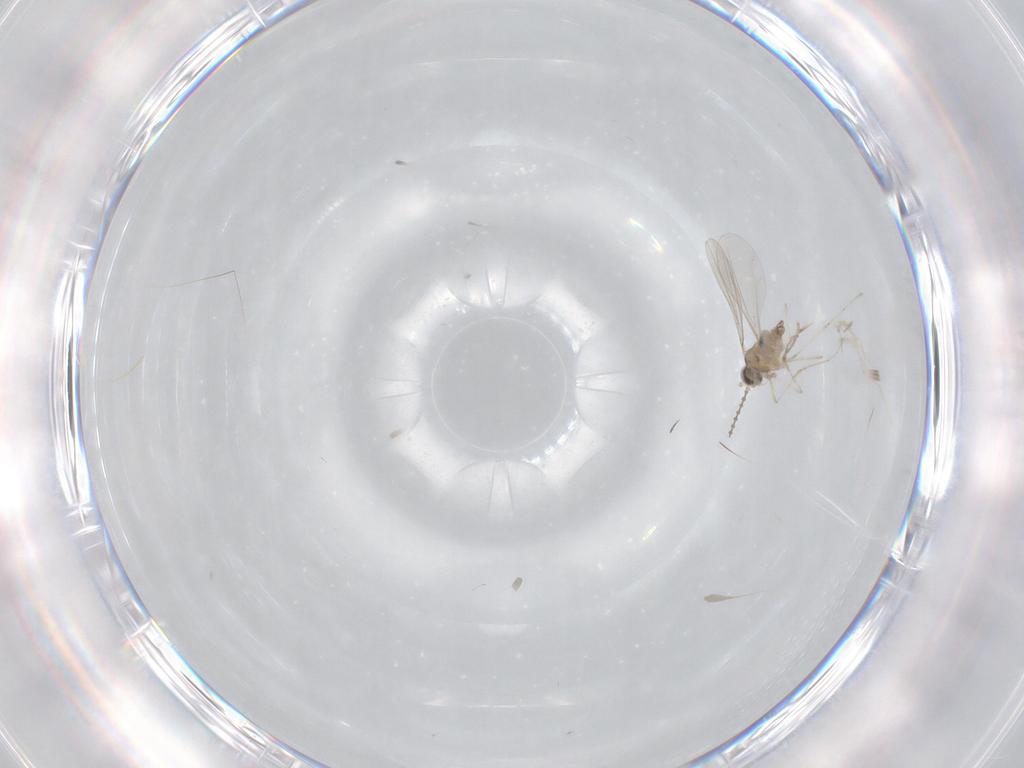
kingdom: Animalia
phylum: Arthropoda
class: Insecta
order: Diptera
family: Cecidomyiidae
